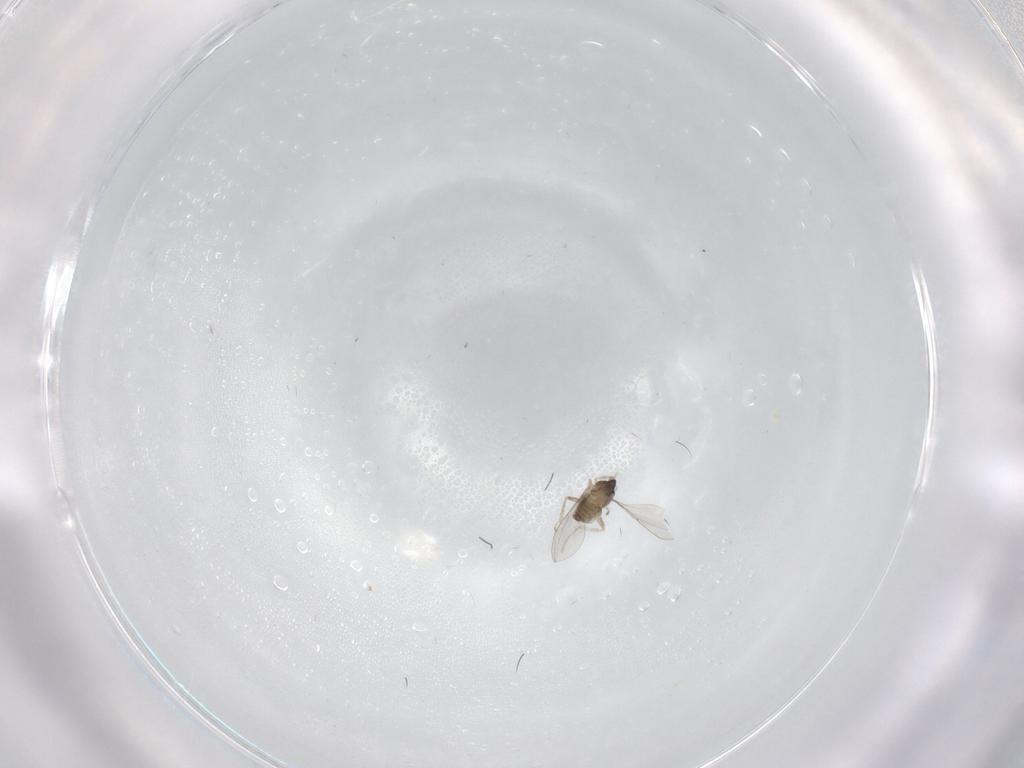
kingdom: Animalia
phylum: Arthropoda
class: Insecta
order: Diptera
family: Cecidomyiidae
